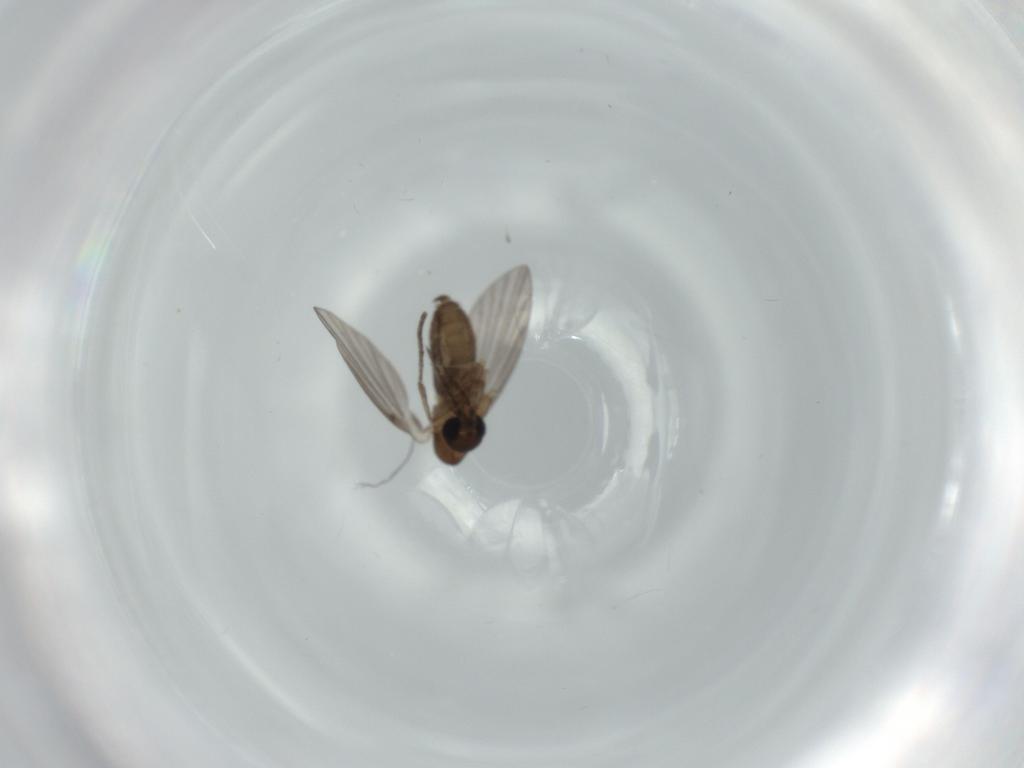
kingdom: Animalia
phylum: Arthropoda
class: Insecta
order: Diptera
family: Psychodidae
